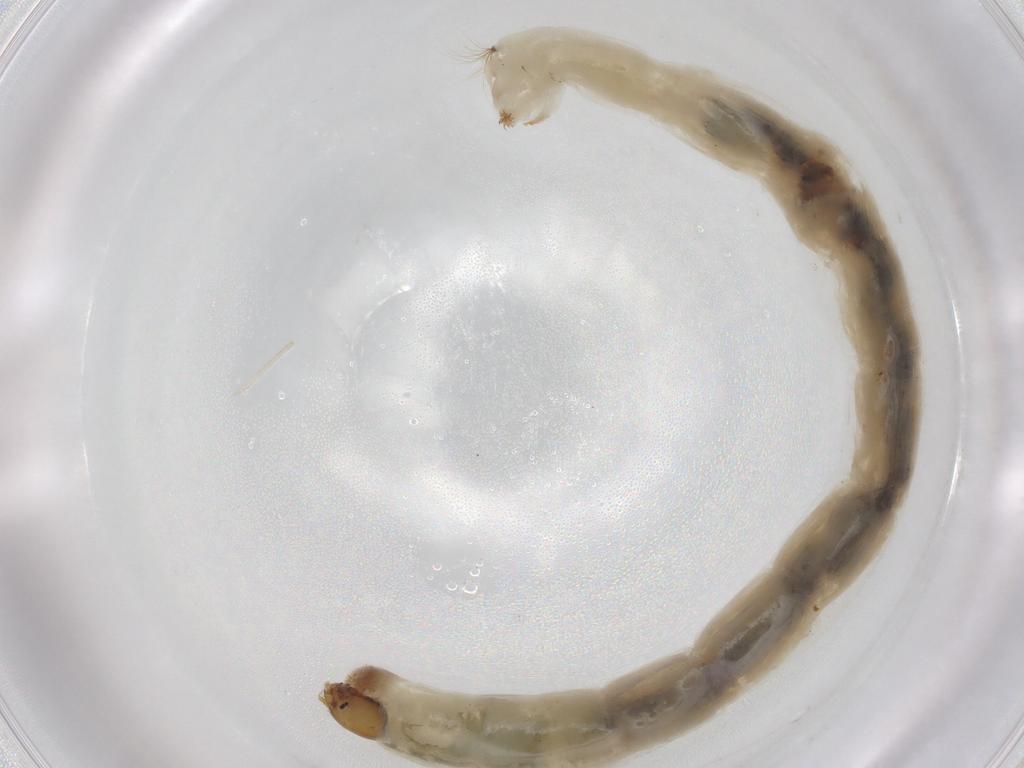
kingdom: Animalia
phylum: Arthropoda
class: Insecta
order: Diptera
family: Chironomidae
